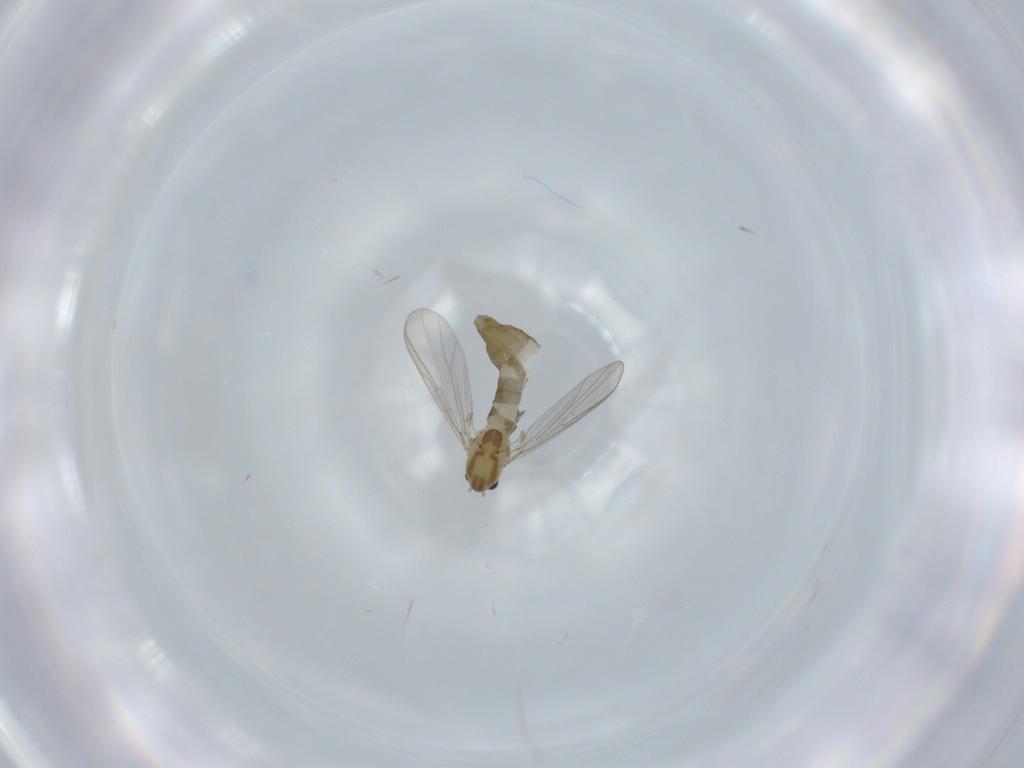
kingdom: Animalia
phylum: Arthropoda
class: Insecta
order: Diptera
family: Chironomidae
